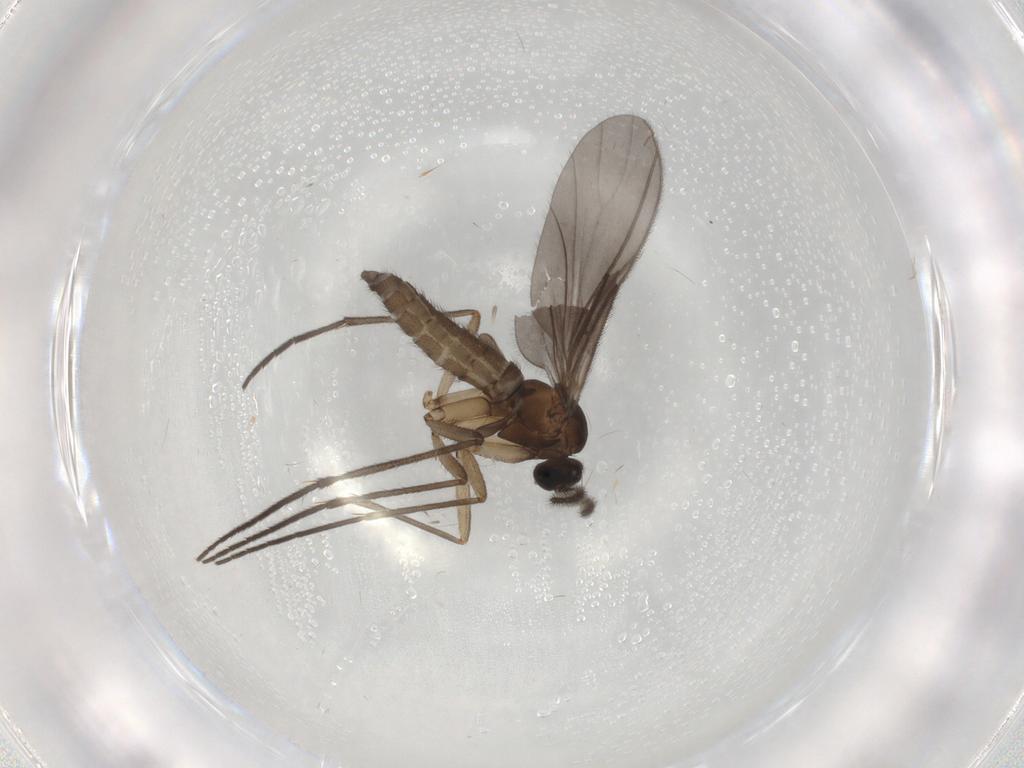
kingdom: Animalia
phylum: Arthropoda
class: Insecta
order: Diptera
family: Sciaridae
